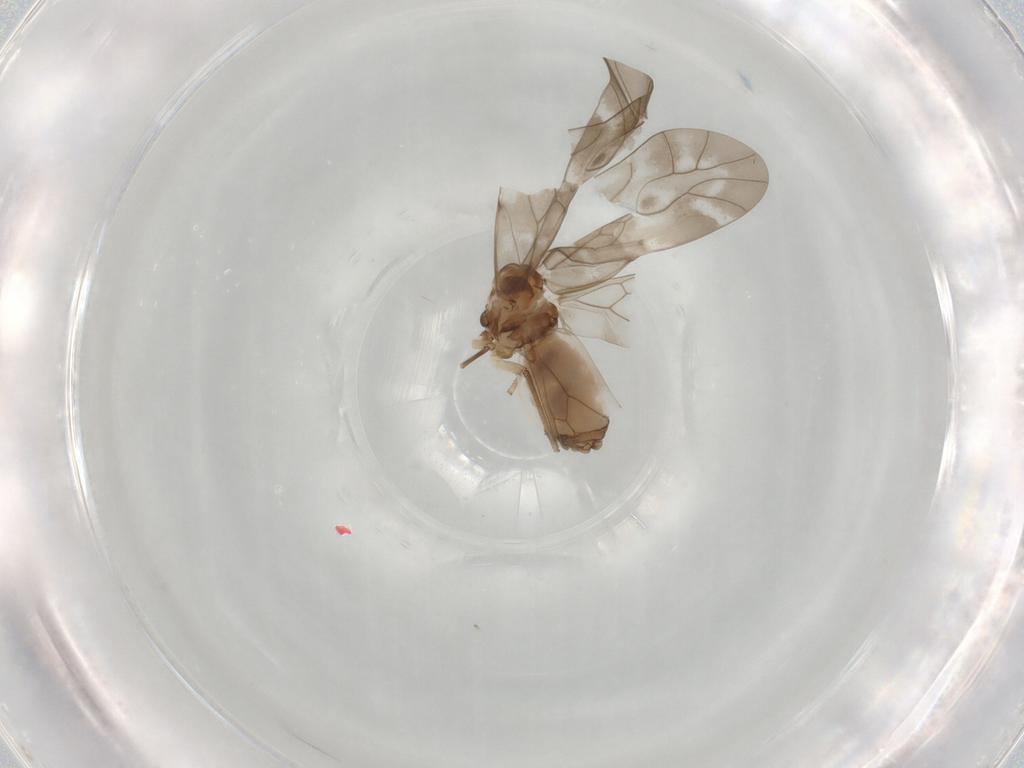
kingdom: Animalia
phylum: Arthropoda
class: Insecta
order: Psocodea
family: Peripsocidae
